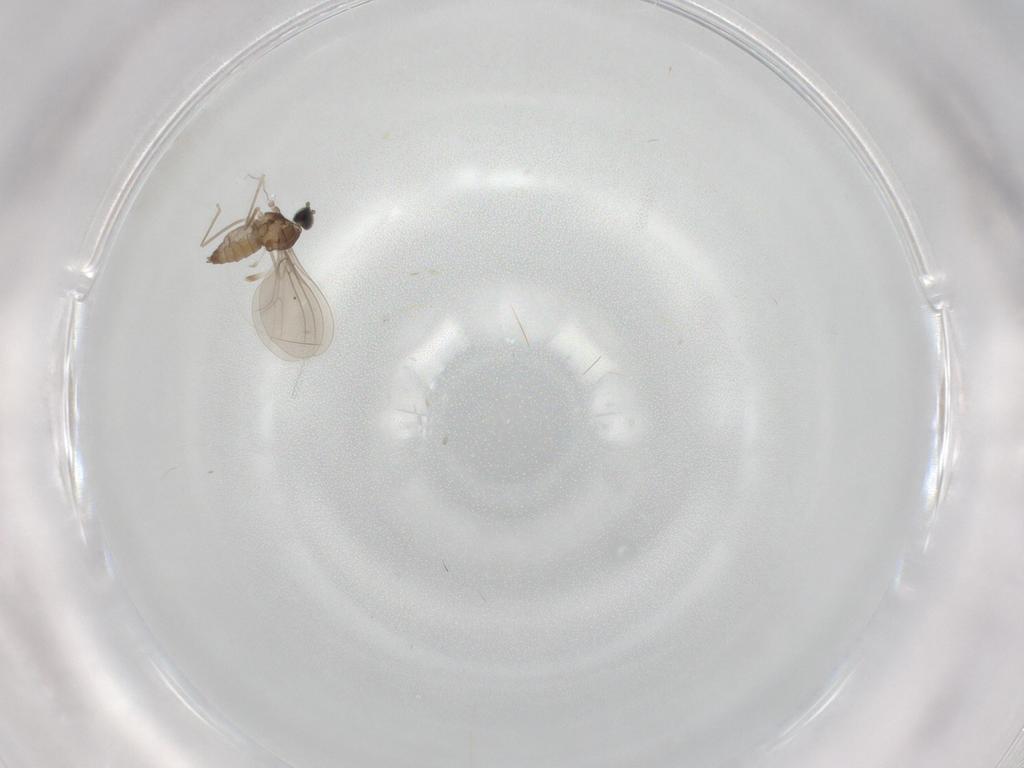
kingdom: Animalia
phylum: Arthropoda
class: Insecta
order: Diptera
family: Cecidomyiidae
